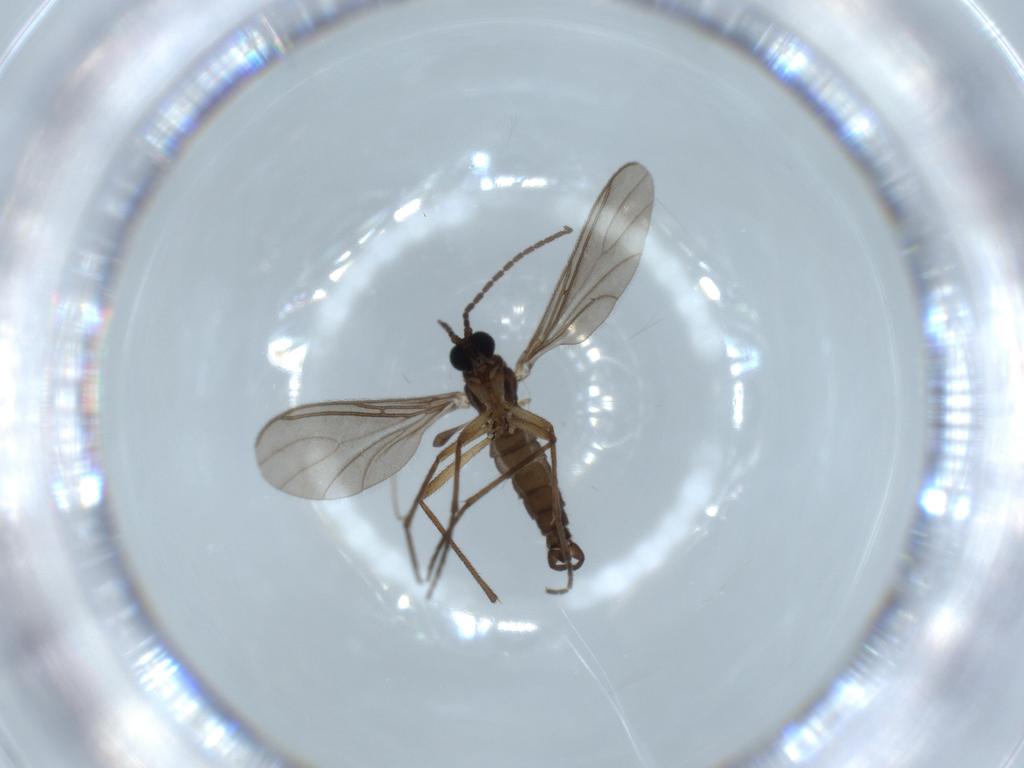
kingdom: Animalia
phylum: Arthropoda
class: Insecta
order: Diptera
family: Sciaridae
